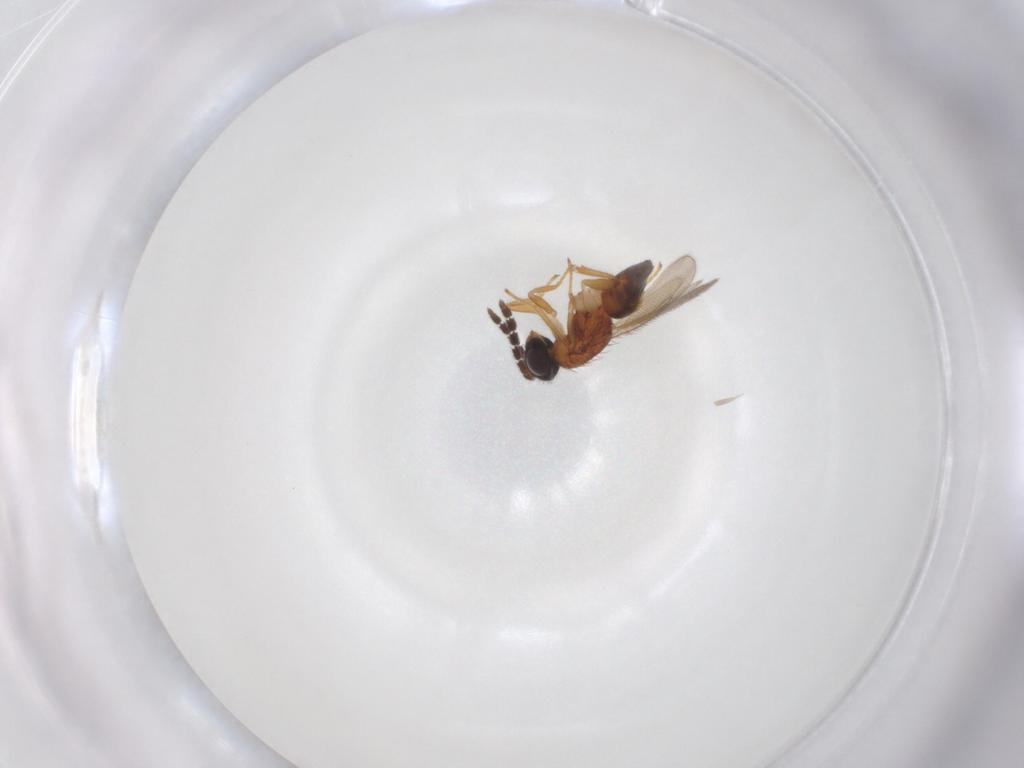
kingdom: Animalia
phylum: Arthropoda
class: Insecta
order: Hymenoptera
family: Eulophidae
